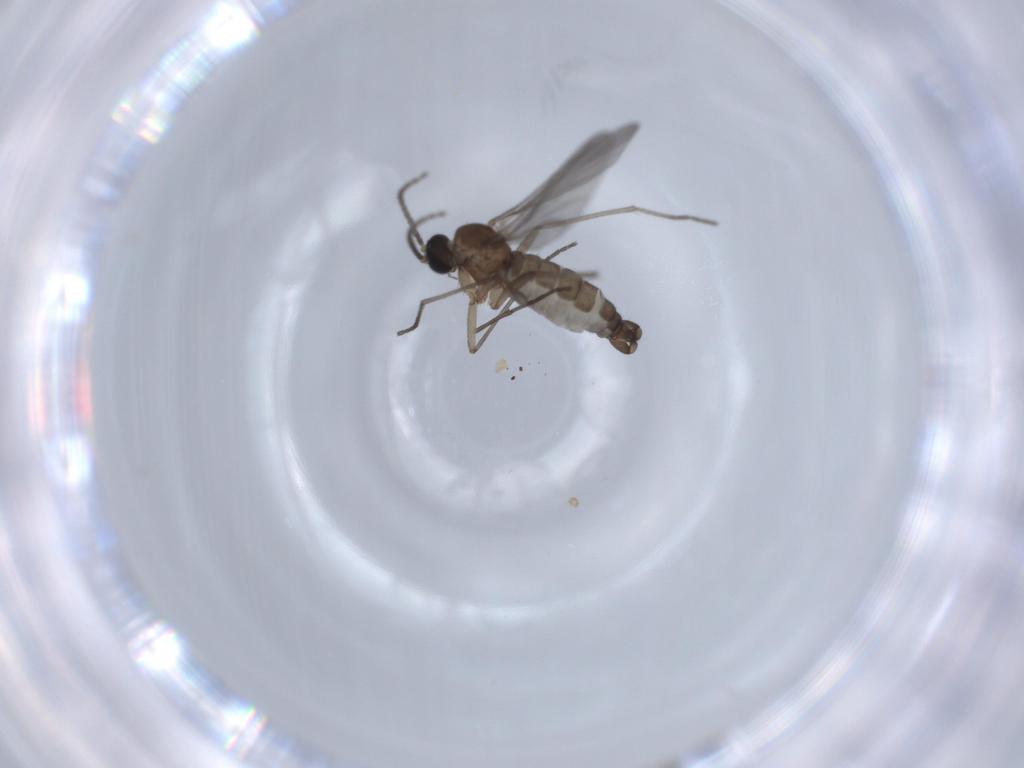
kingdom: Animalia
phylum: Arthropoda
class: Insecta
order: Diptera
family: Sciaridae
